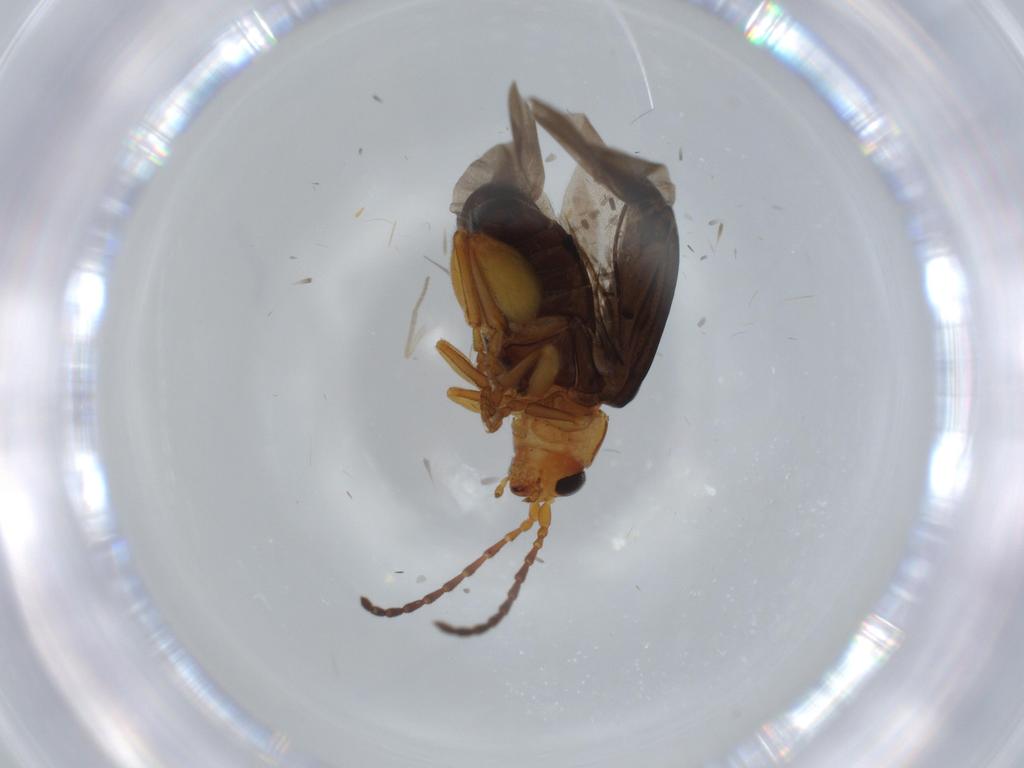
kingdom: Animalia
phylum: Arthropoda
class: Insecta
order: Coleoptera
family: Chrysomelidae
